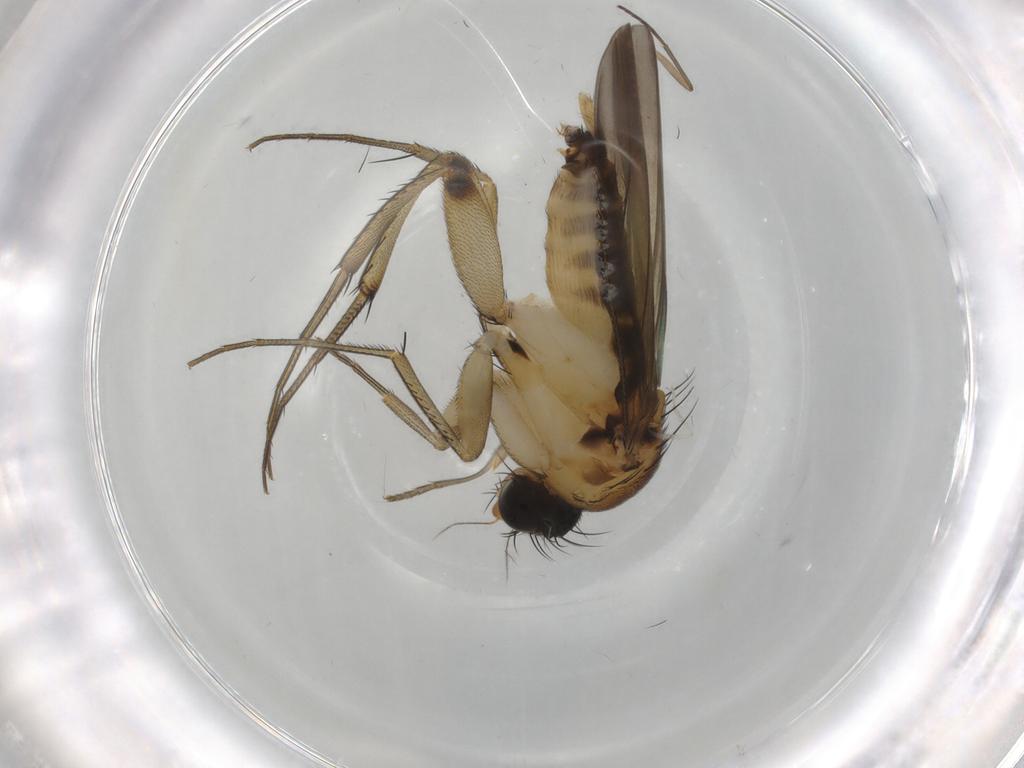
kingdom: Animalia
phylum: Arthropoda
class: Insecta
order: Diptera
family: Phoridae
